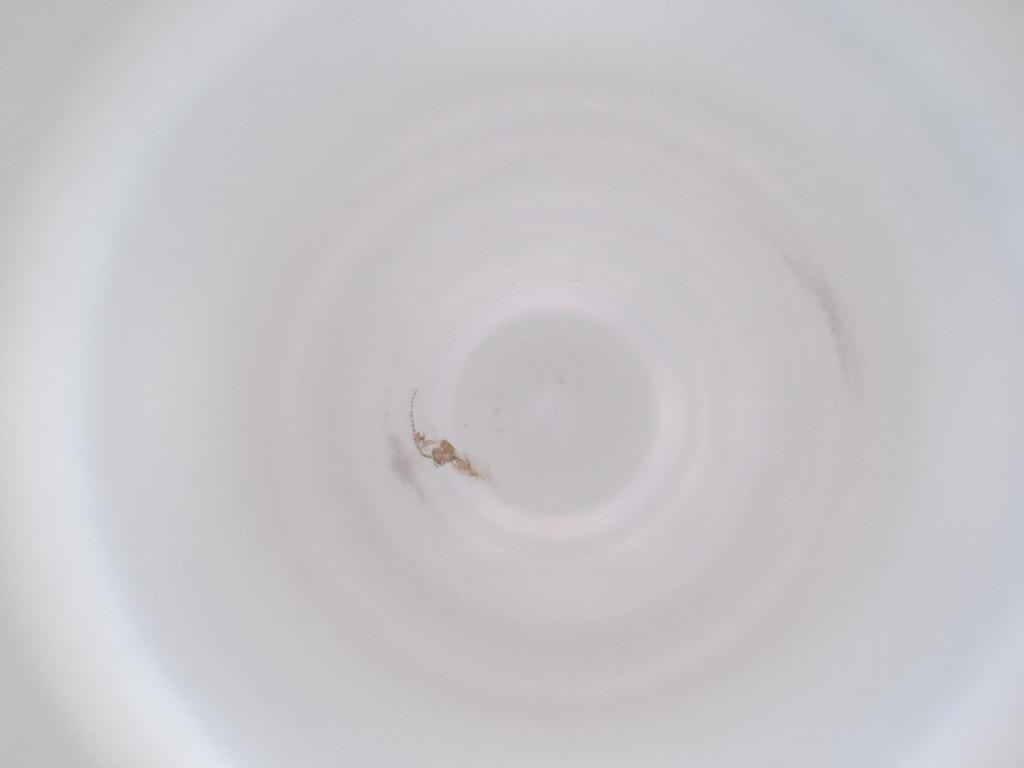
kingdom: Animalia
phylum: Arthropoda
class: Insecta
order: Diptera
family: Cecidomyiidae
